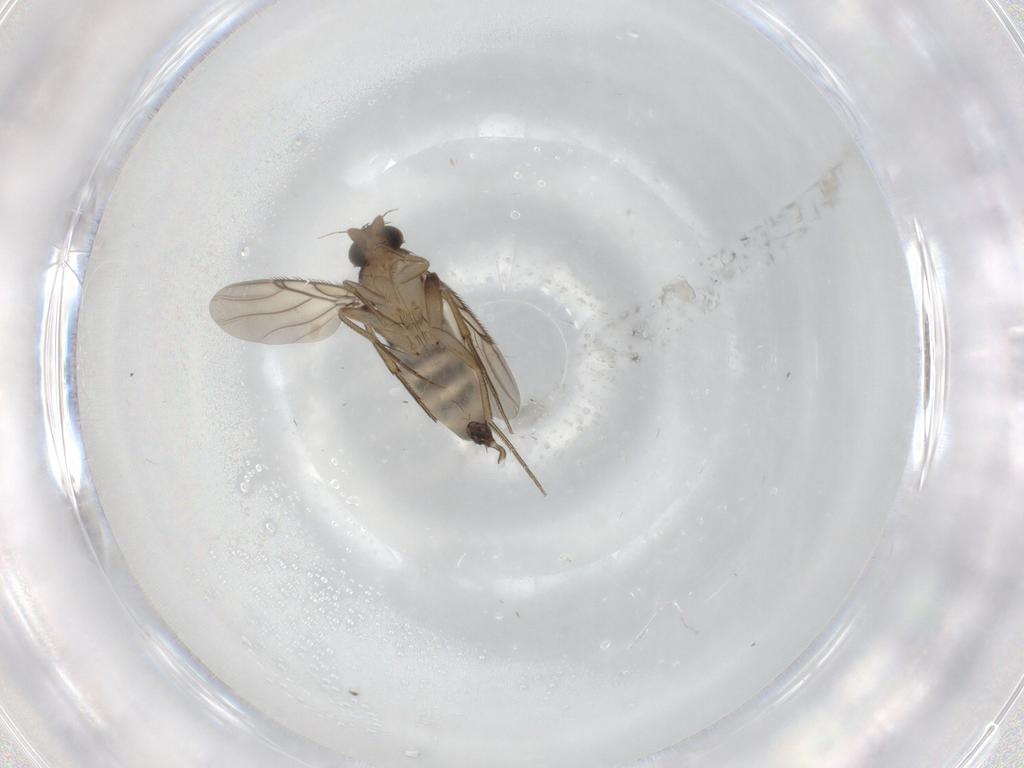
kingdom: Animalia
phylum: Arthropoda
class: Insecta
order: Diptera
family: Phoridae
